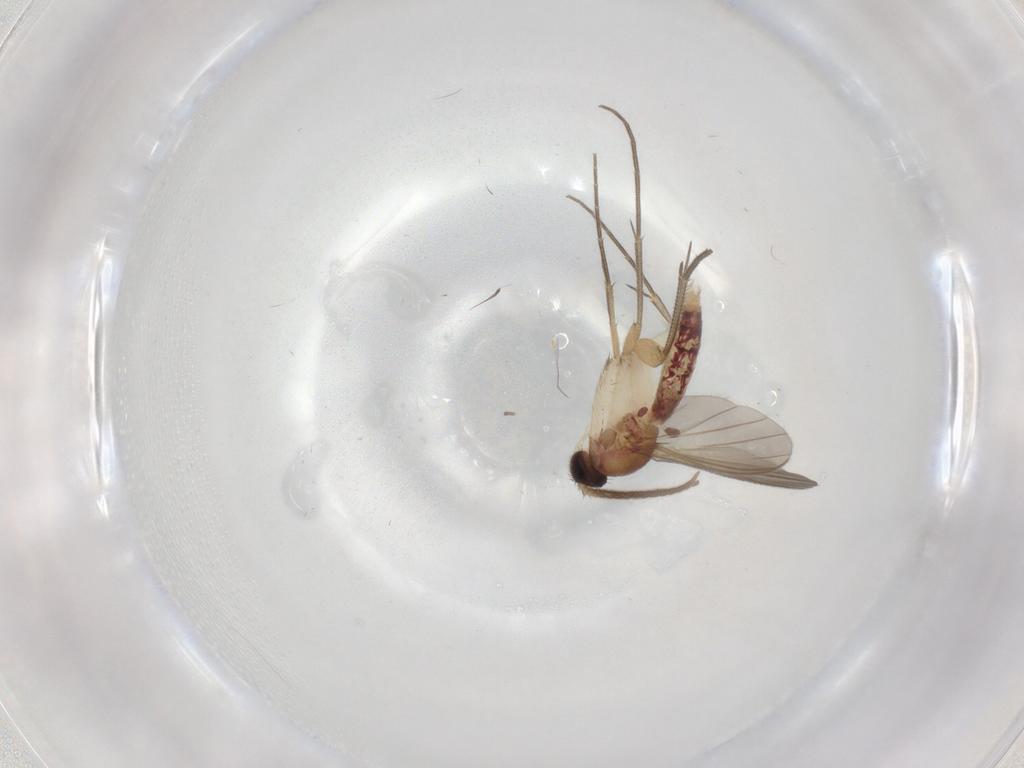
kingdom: Animalia
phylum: Arthropoda
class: Insecta
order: Diptera
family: Mycetophilidae
